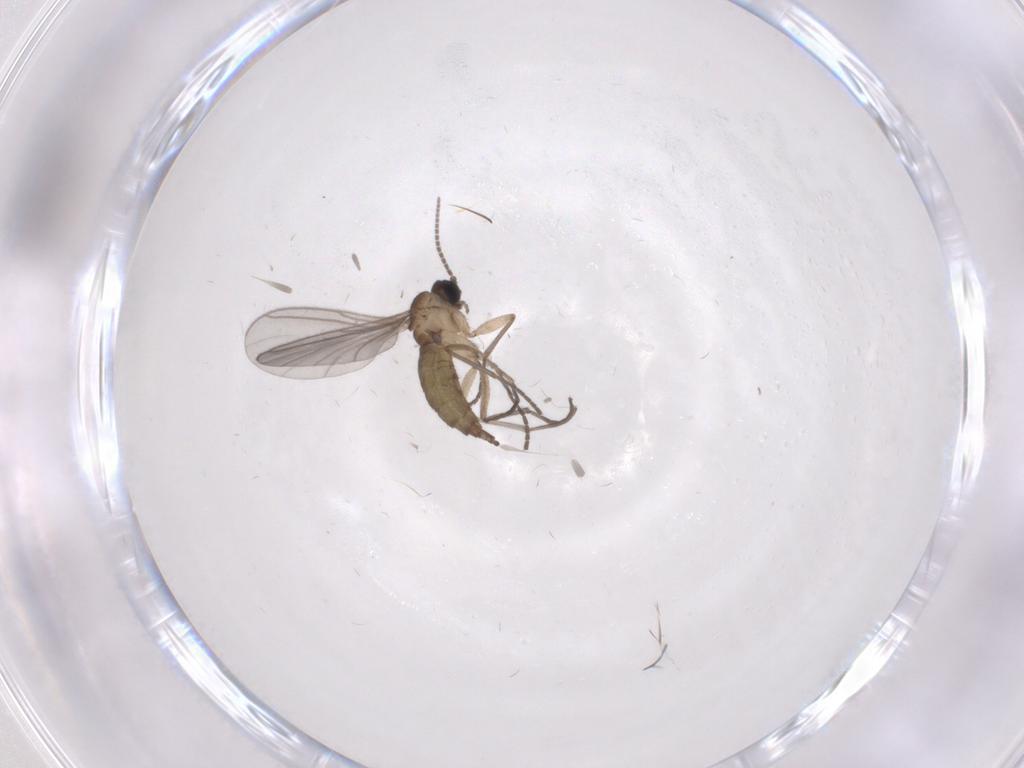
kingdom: Animalia
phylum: Arthropoda
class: Insecta
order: Diptera
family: Sciaridae
